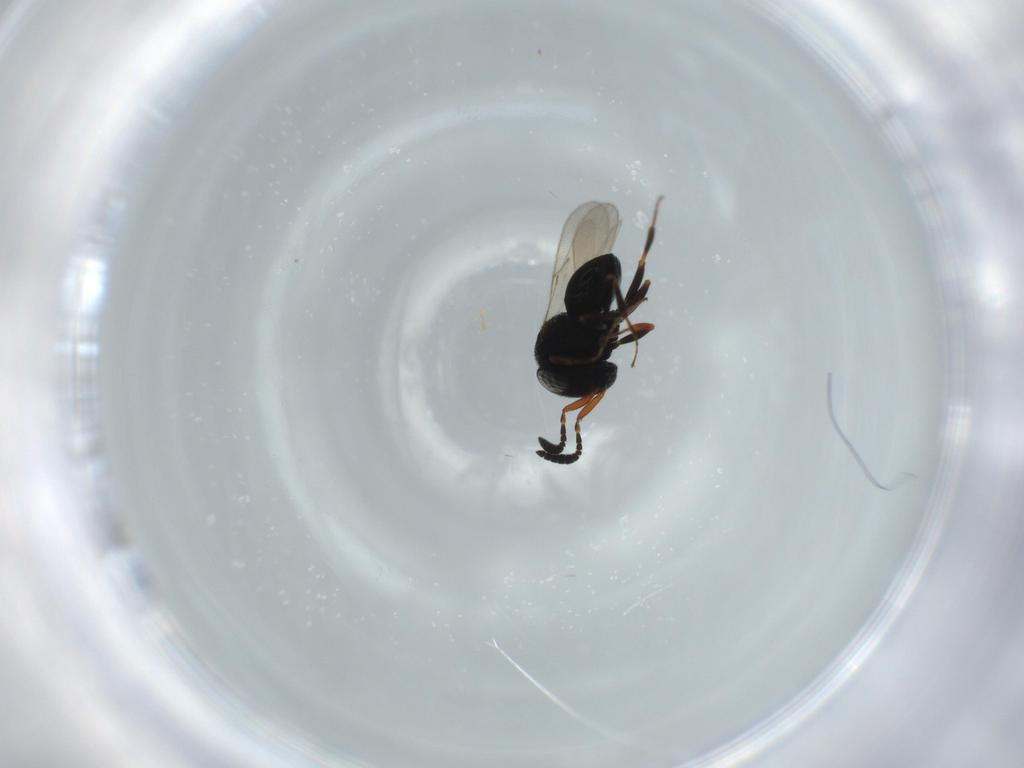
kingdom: Animalia
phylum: Arthropoda
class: Insecta
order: Hymenoptera
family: Scelionidae
